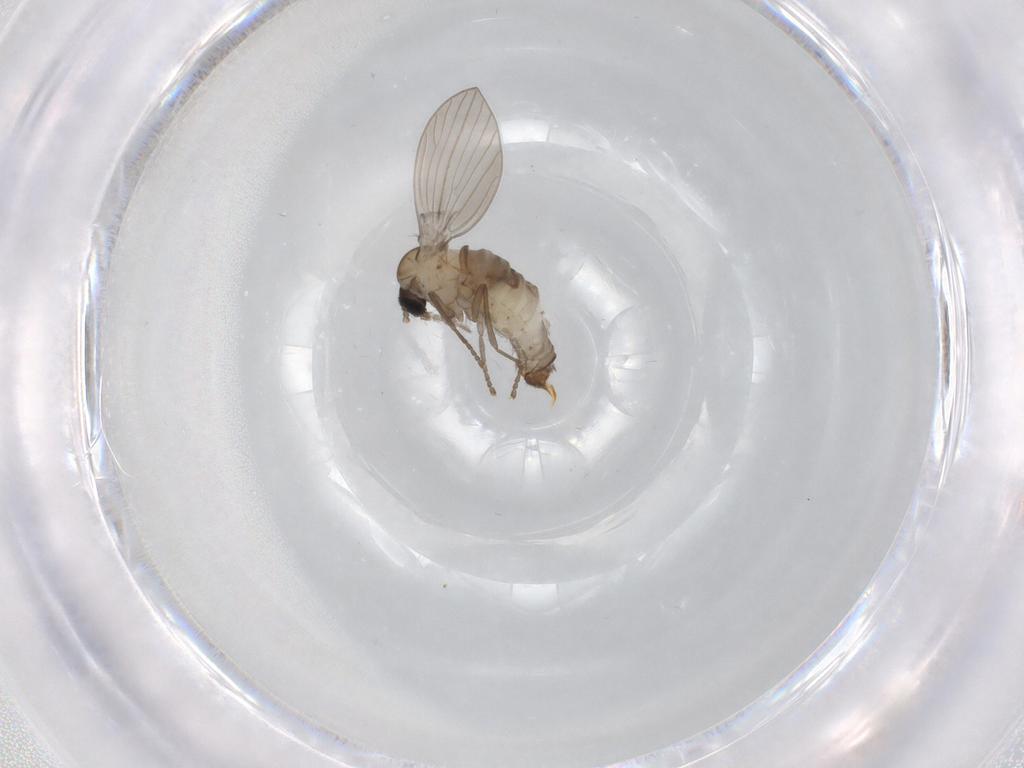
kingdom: Animalia
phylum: Arthropoda
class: Insecta
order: Diptera
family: Psychodidae
